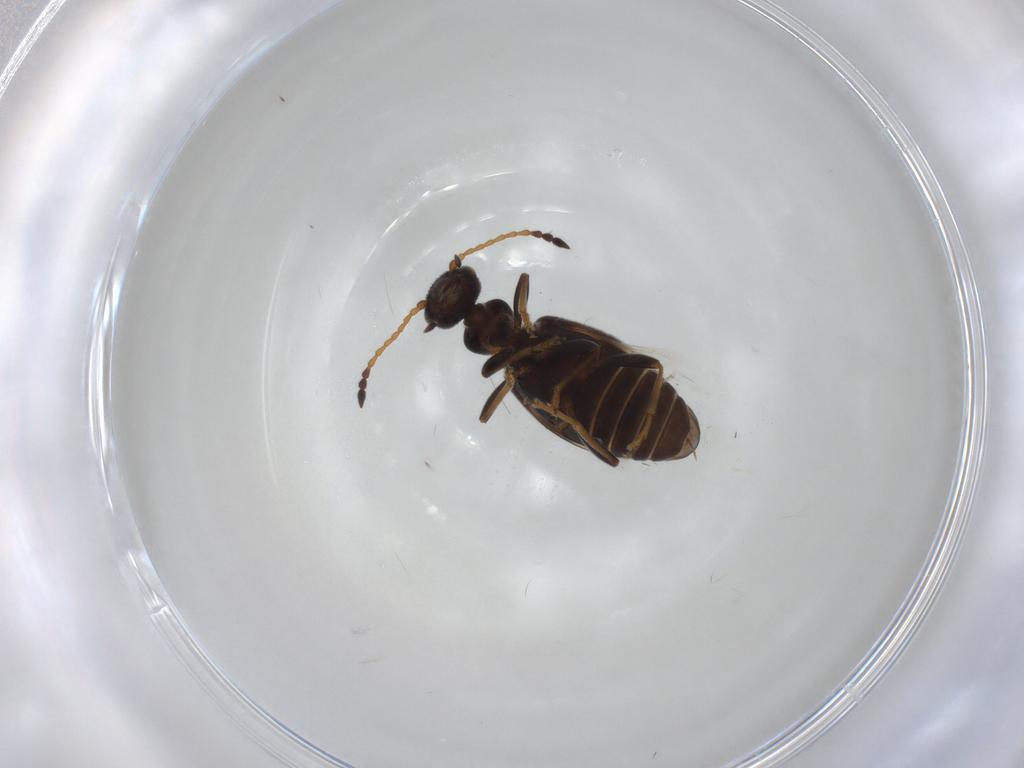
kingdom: Animalia
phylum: Arthropoda
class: Insecta
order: Coleoptera
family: Anthicidae
